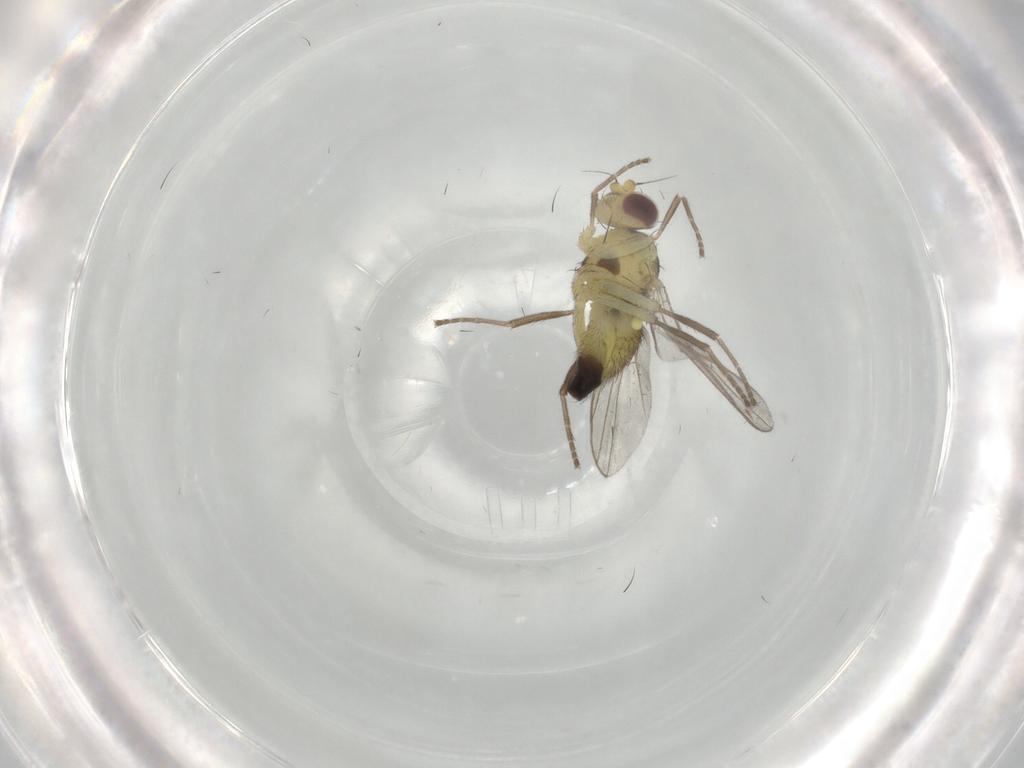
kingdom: Animalia
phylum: Arthropoda
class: Insecta
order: Diptera
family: Agromyzidae
